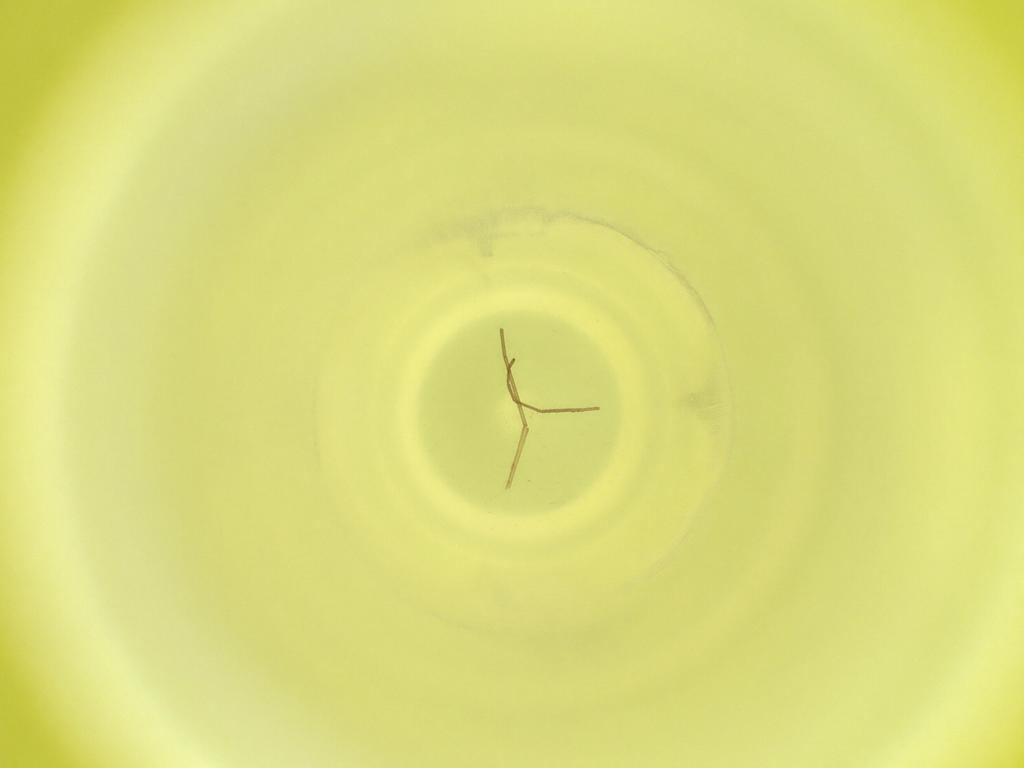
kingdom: Animalia
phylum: Arthropoda
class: Insecta
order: Diptera
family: Cecidomyiidae
